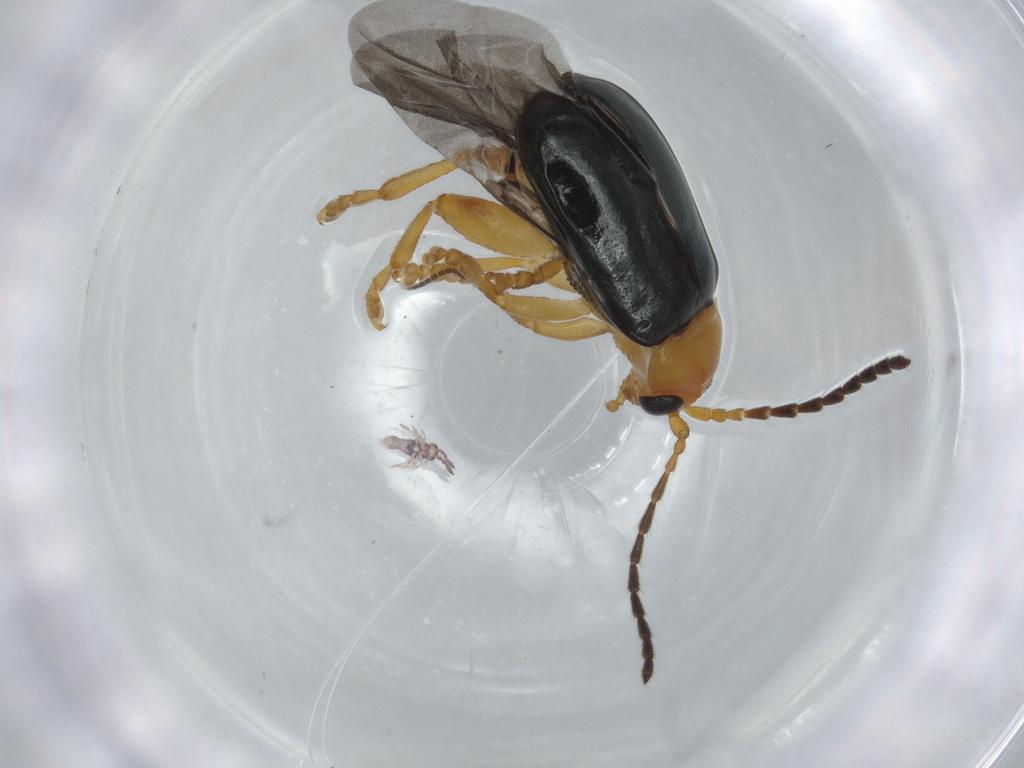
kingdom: Animalia
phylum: Arthropoda
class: Insecta
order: Coleoptera
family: Chrysomelidae
